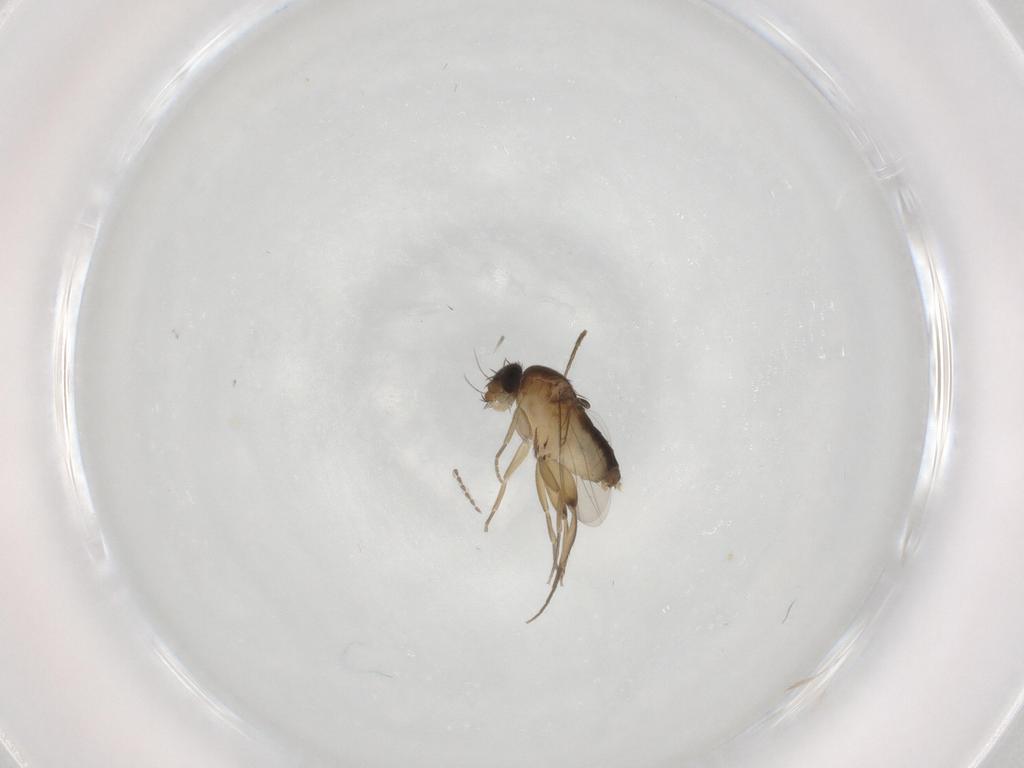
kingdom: Animalia
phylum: Arthropoda
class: Insecta
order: Diptera
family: Phoridae
